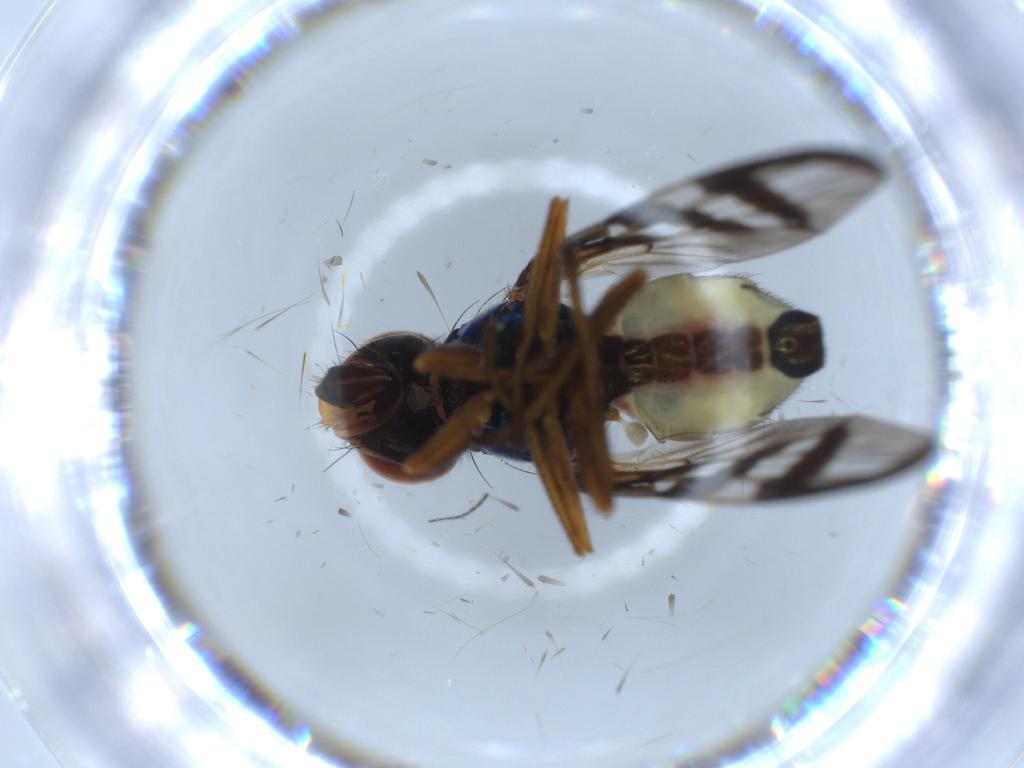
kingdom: Animalia
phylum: Arthropoda
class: Insecta
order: Diptera
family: Platystomatidae
